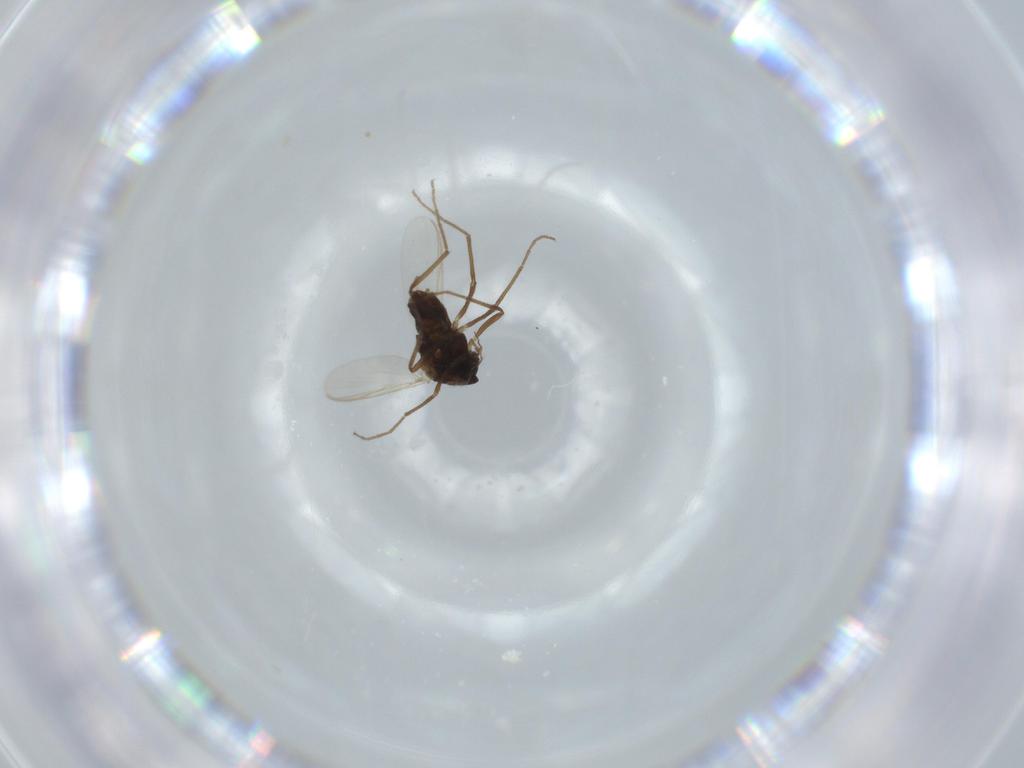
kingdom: Animalia
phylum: Arthropoda
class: Insecta
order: Diptera
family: Chironomidae
